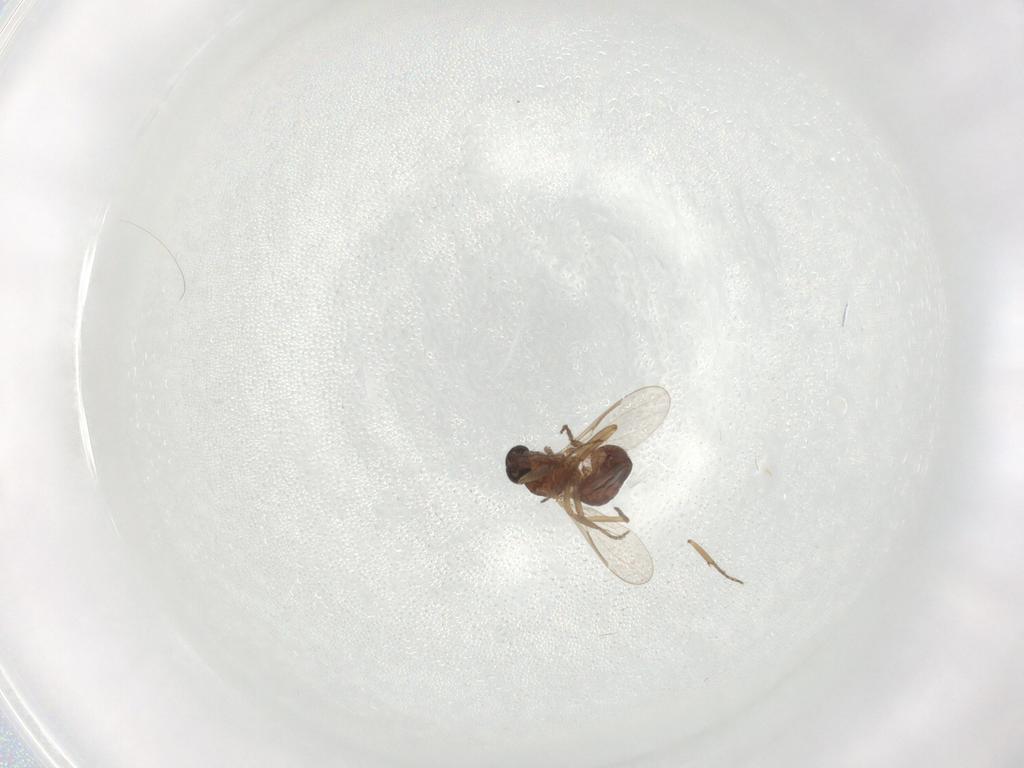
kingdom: Animalia
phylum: Arthropoda
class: Insecta
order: Diptera
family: Ceratopogonidae
